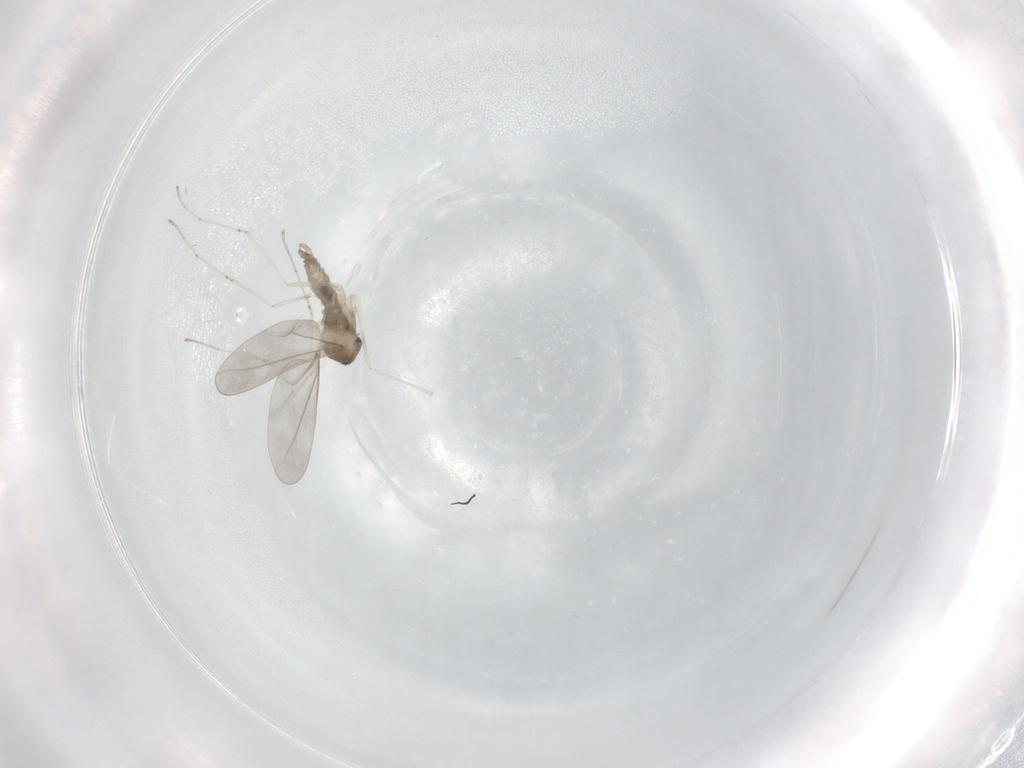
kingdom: Animalia
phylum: Arthropoda
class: Insecta
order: Diptera
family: Cecidomyiidae
